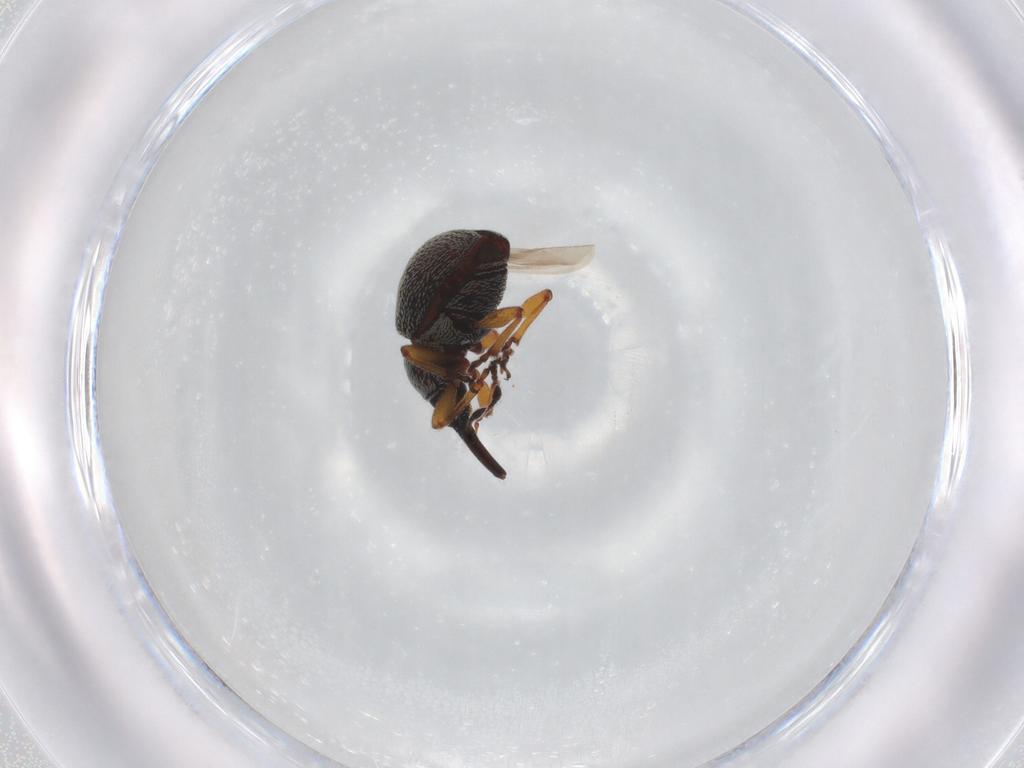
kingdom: Animalia
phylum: Arthropoda
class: Insecta
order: Coleoptera
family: Brentidae
